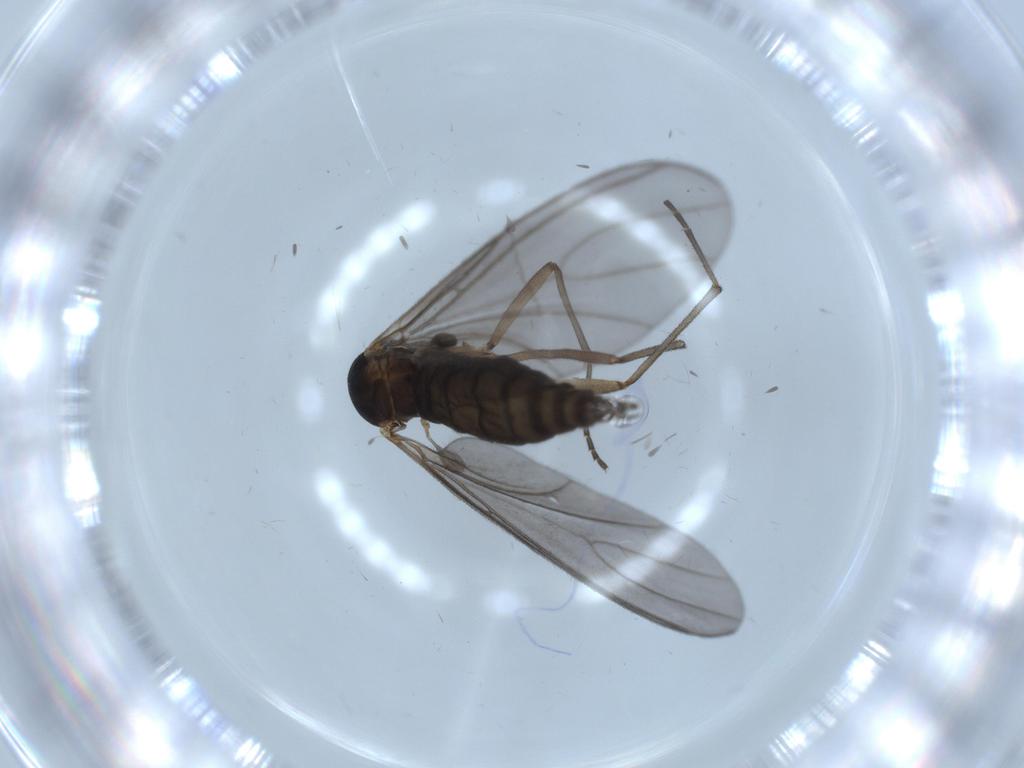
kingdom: Animalia
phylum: Arthropoda
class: Insecta
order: Diptera
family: Sciaridae
